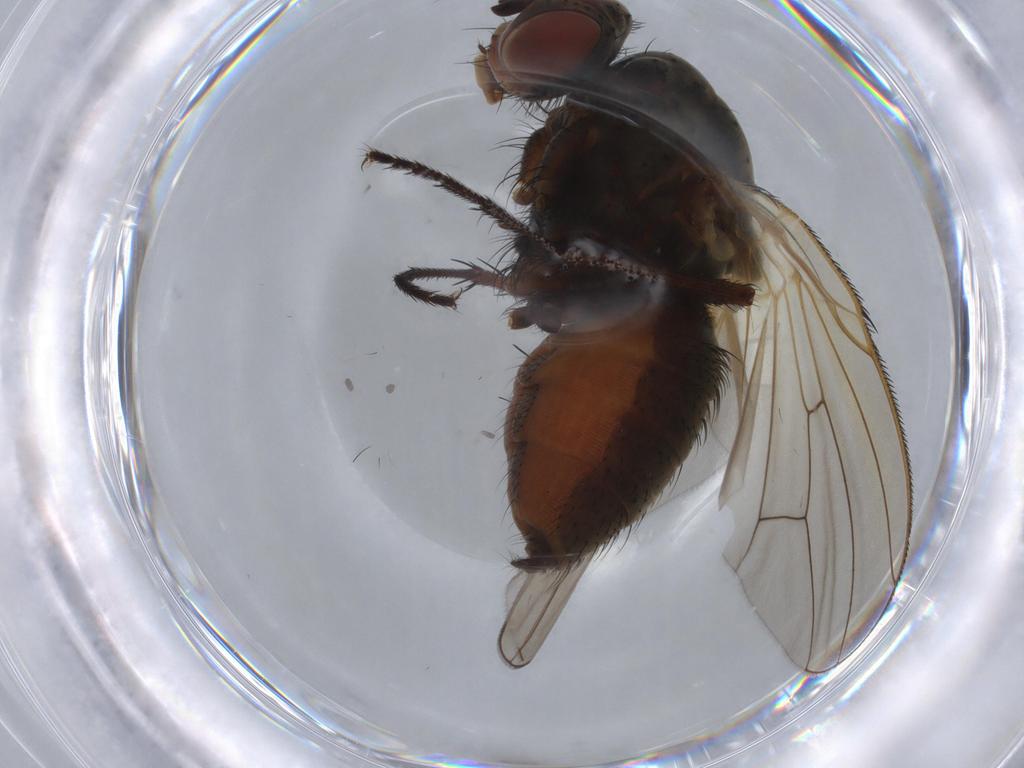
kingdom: Animalia
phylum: Arthropoda
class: Insecta
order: Diptera
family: Anthomyiidae
